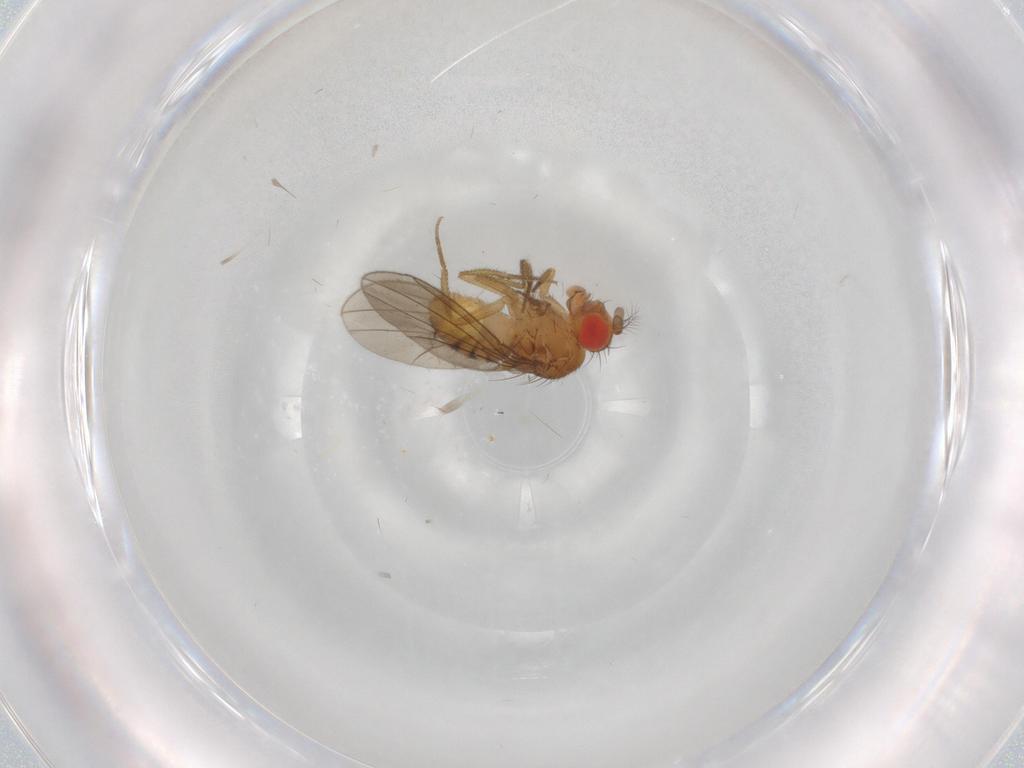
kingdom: Animalia
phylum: Arthropoda
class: Insecta
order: Diptera
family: Drosophilidae
